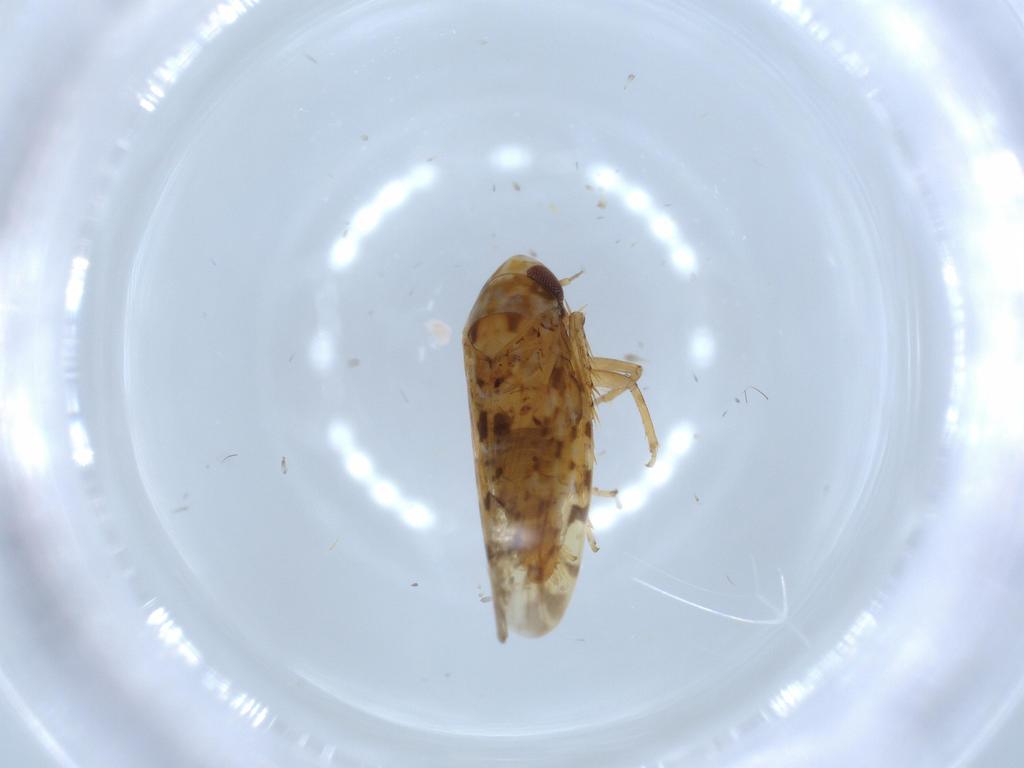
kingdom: Animalia
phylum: Arthropoda
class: Insecta
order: Hemiptera
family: Cicadellidae
